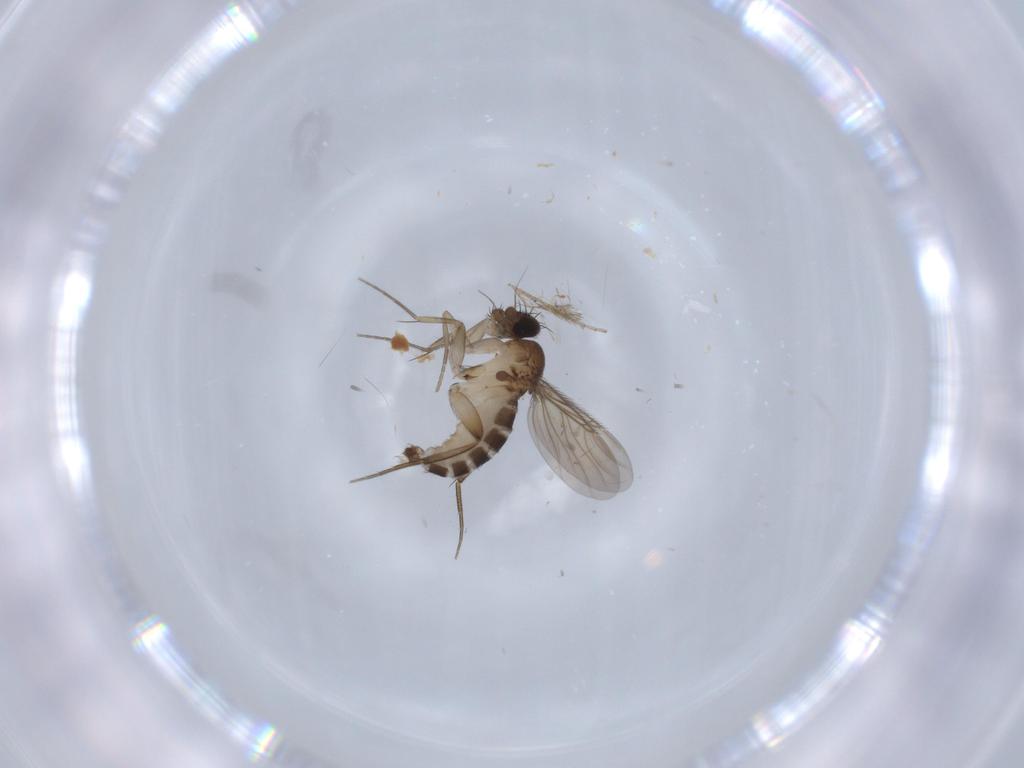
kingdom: Animalia
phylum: Arthropoda
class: Insecta
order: Diptera
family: Phoridae
